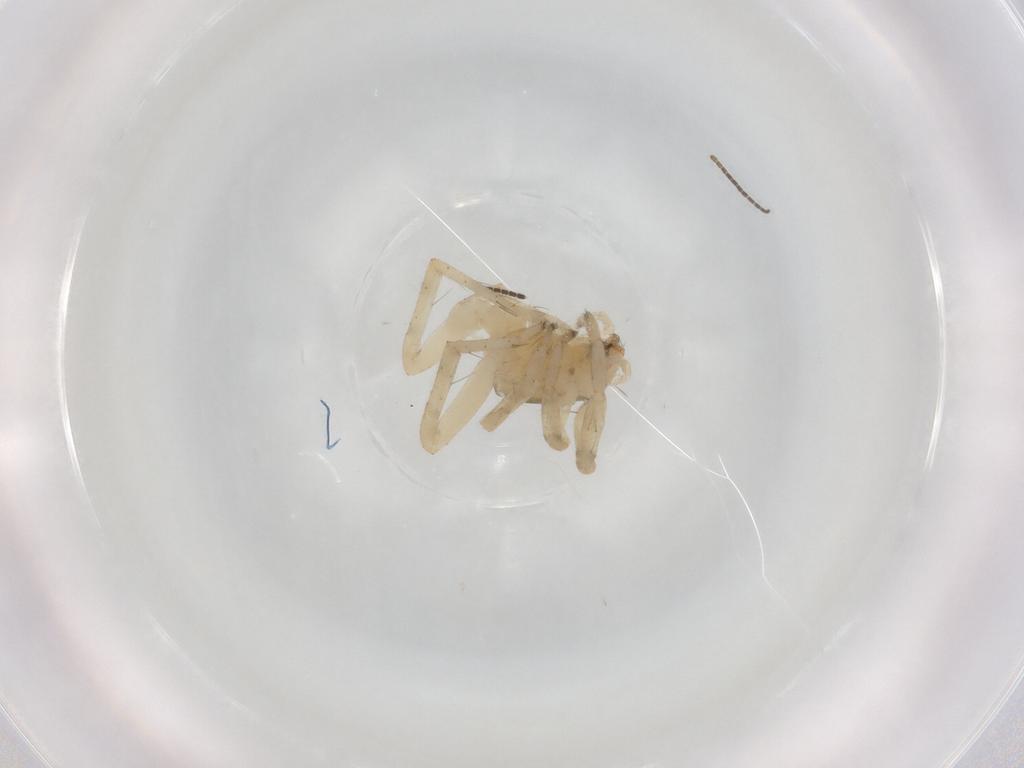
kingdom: Animalia
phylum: Arthropoda
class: Arachnida
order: Araneae
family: Anyphaenidae
